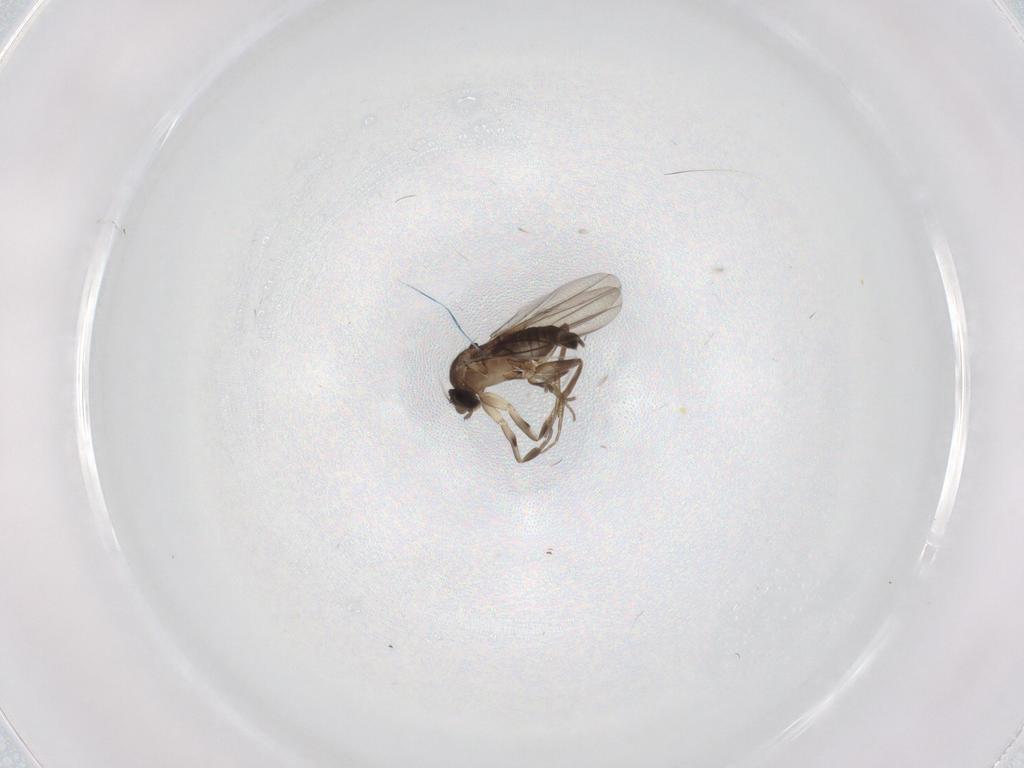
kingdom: Animalia
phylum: Arthropoda
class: Insecta
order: Diptera
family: Phoridae
